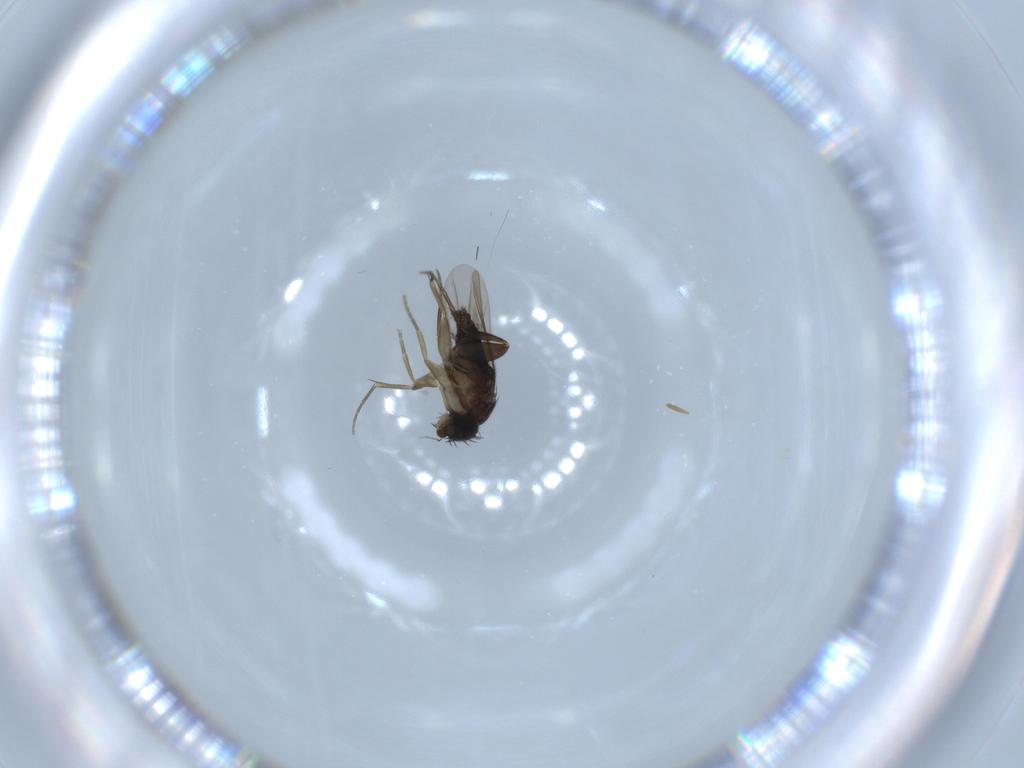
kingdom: Animalia
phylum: Arthropoda
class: Insecta
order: Diptera
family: Phoridae
